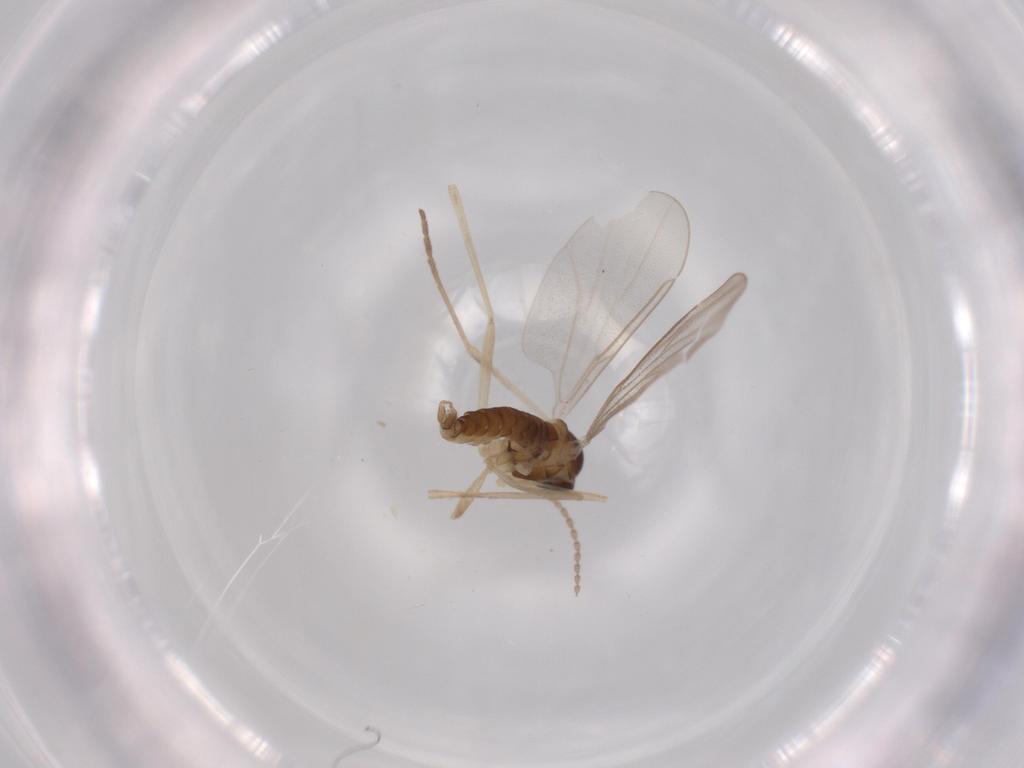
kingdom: Animalia
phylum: Arthropoda
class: Insecta
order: Diptera
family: Cecidomyiidae
